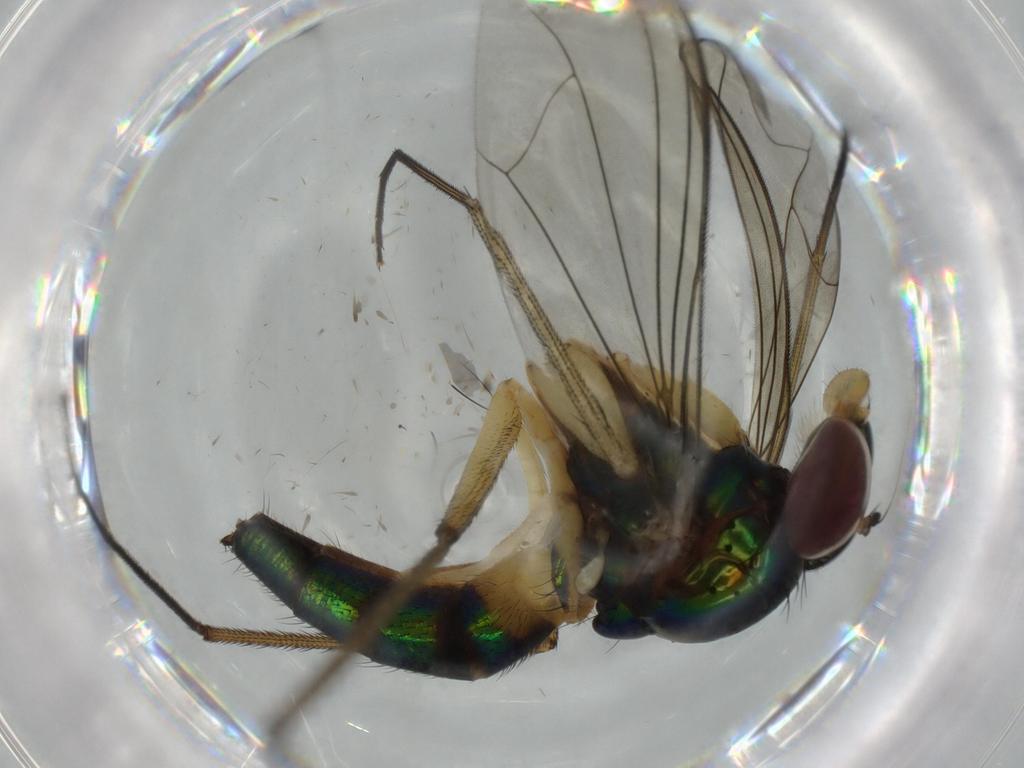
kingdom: Animalia
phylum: Arthropoda
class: Insecta
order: Diptera
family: Dolichopodidae
